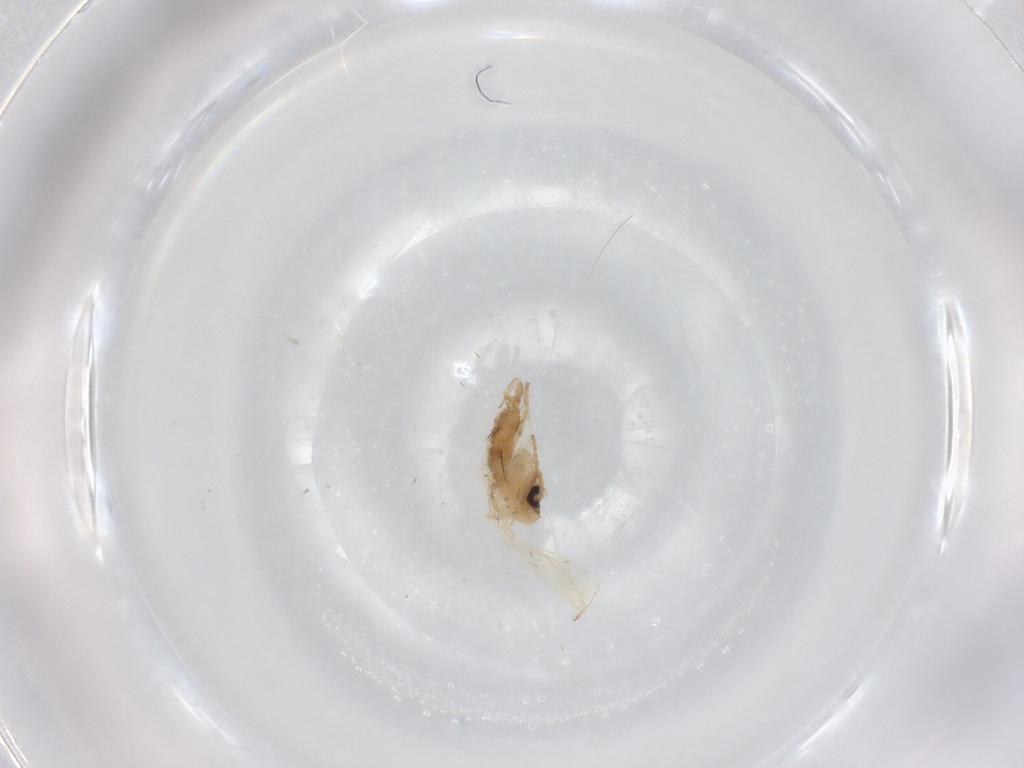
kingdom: Animalia
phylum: Arthropoda
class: Insecta
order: Diptera
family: Psychodidae
